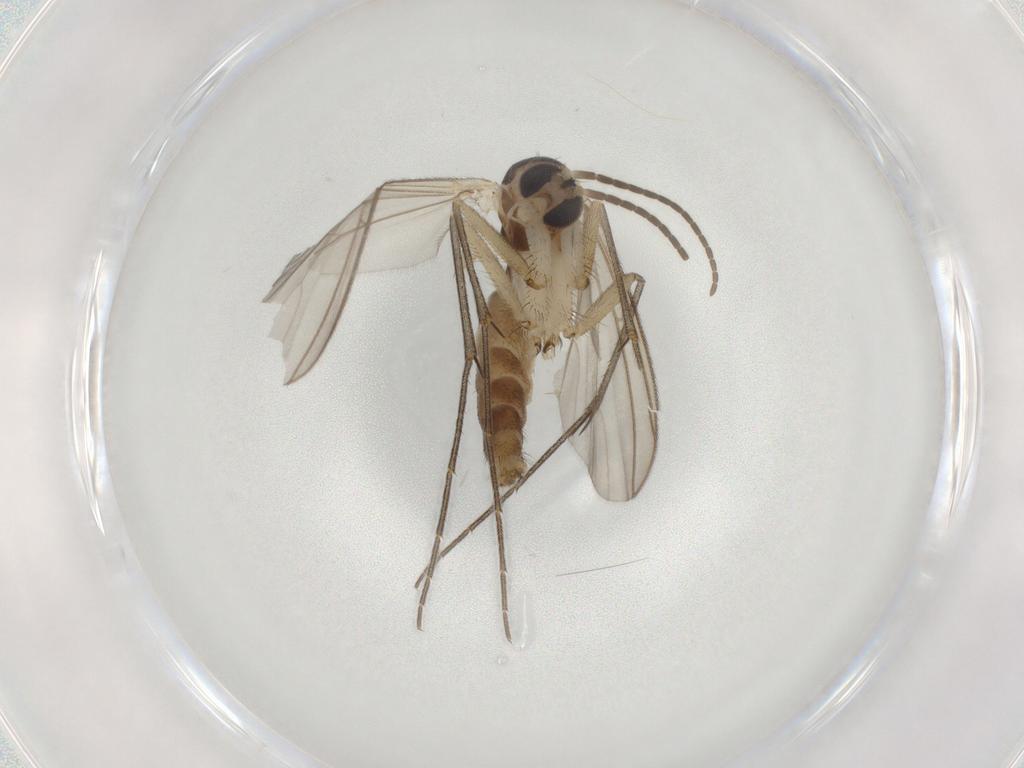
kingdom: Animalia
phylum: Arthropoda
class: Insecta
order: Diptera
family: Mycetophilidae
